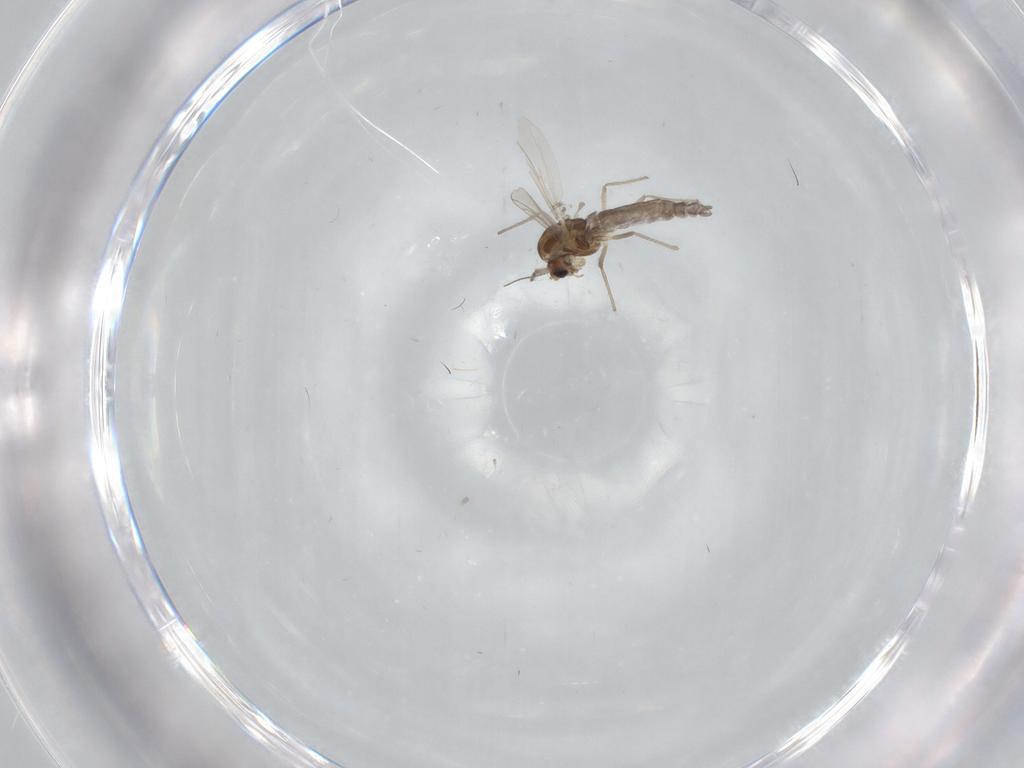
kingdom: Animalia
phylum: Arthropoda
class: Insecta
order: Diptera
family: Chironomidae
